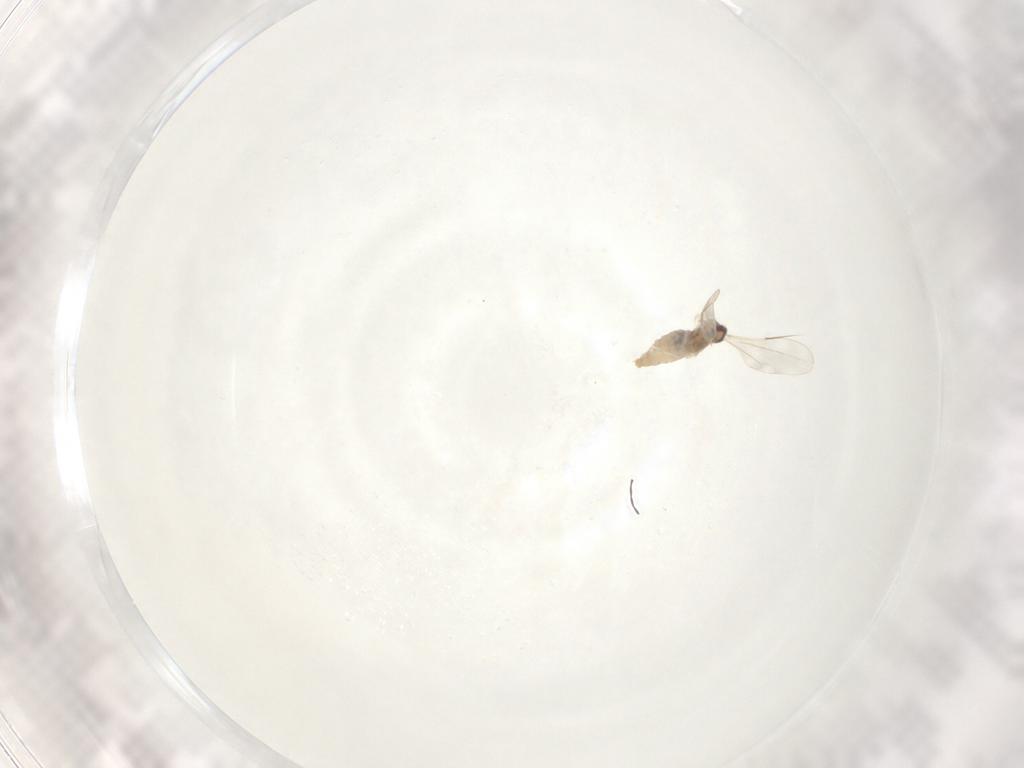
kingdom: Animalia
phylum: Arthropoda
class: Insecta
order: Diptera
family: Cecidomyiidae
